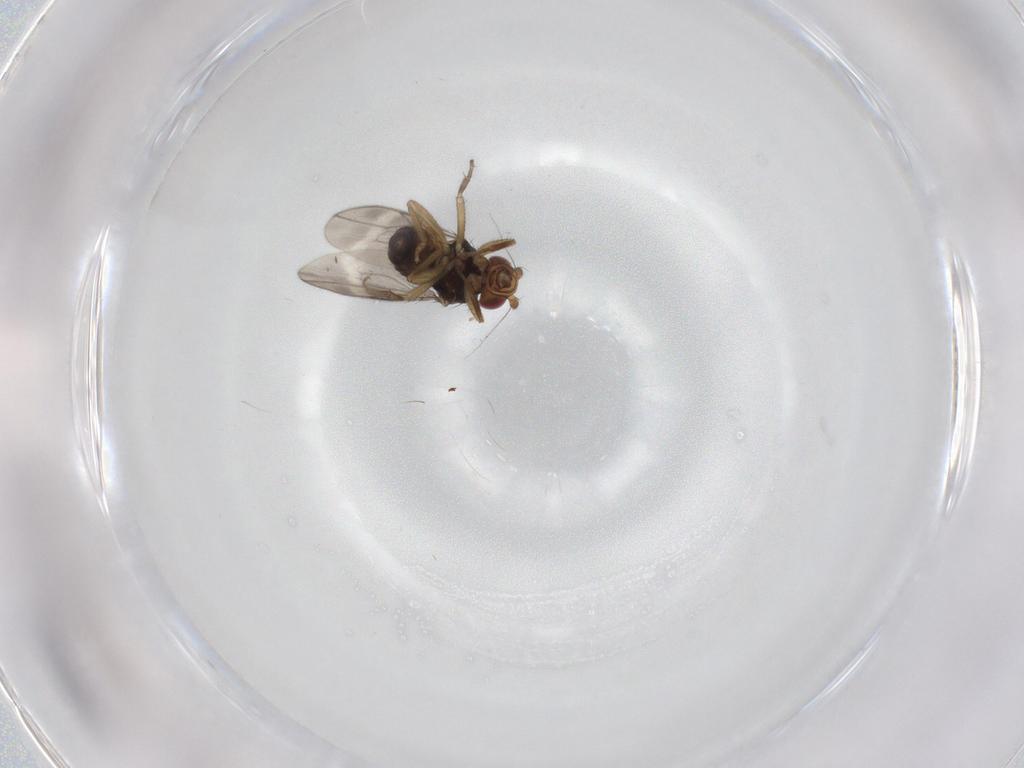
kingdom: Animalia
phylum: Arthropoda
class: Insecta
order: Diptera
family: Sphaeroceridae
